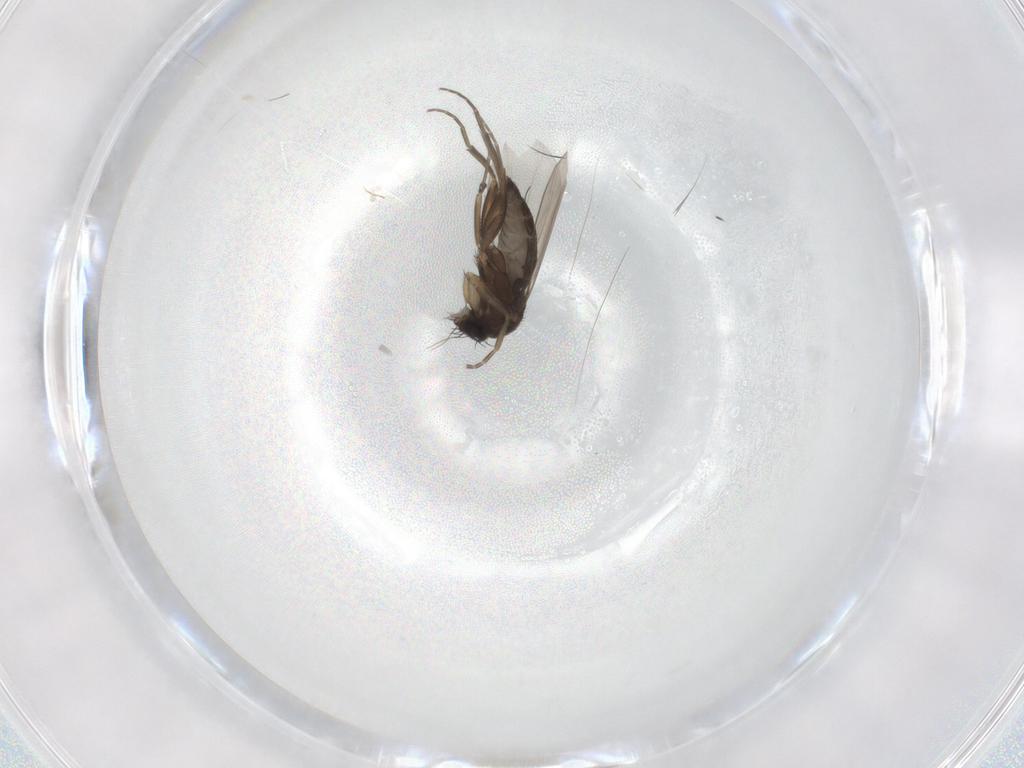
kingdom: Animalia
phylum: Arthropoda
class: Insecta
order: Diptera
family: Phoridae
